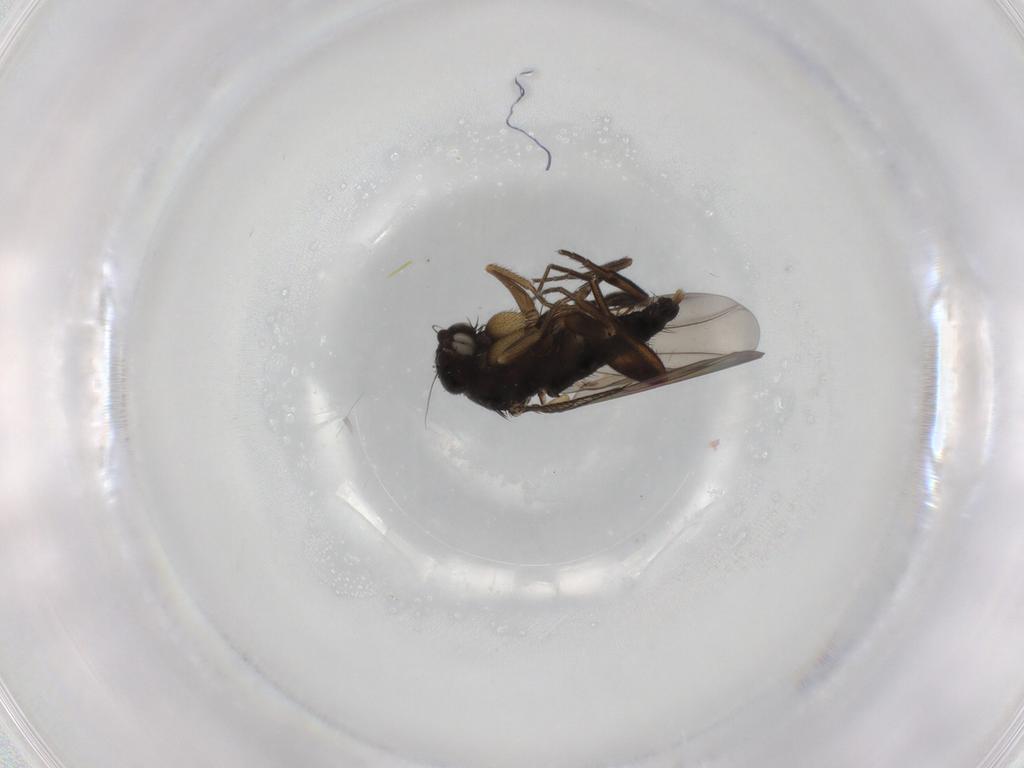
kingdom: Animalia
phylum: Arthropoda
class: Insecta
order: Diptera
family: Phoridae
